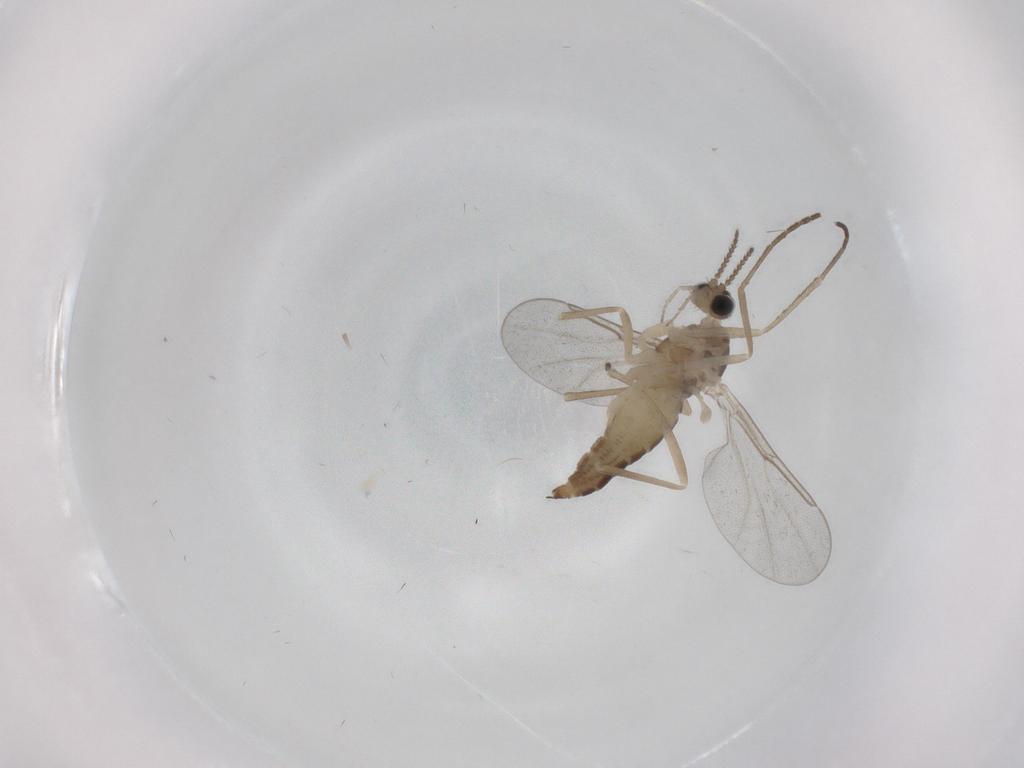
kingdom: Animalia
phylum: Arthropoda
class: Insecta
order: Diptera
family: Cecidomyiidae
